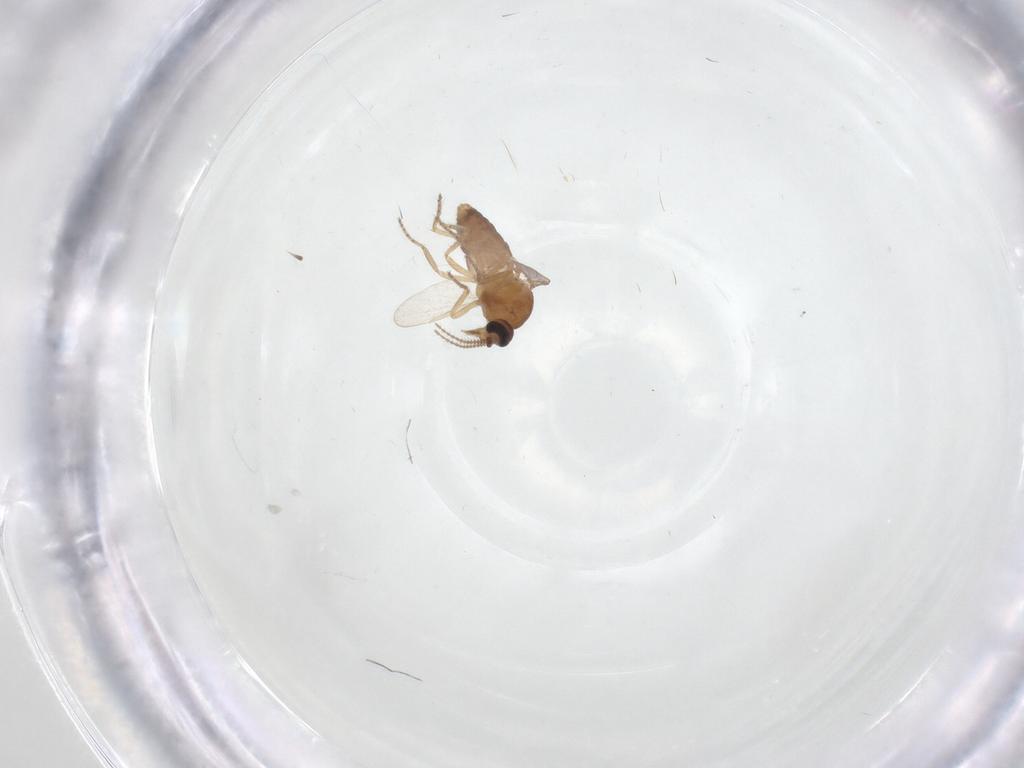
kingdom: Animalia
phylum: Arthropoda
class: Insecta
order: Diptera
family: Ceratopogonidae
